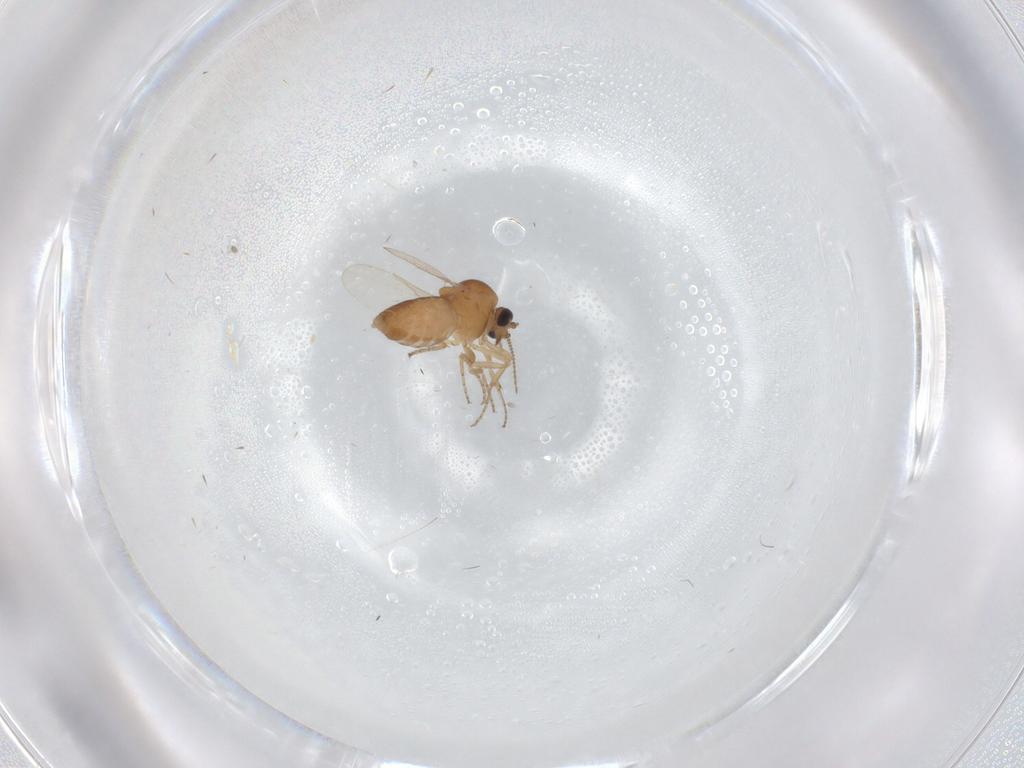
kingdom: Animalia
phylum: Arthropoda
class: Insecta
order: Diptera
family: Ceratopogonidae
